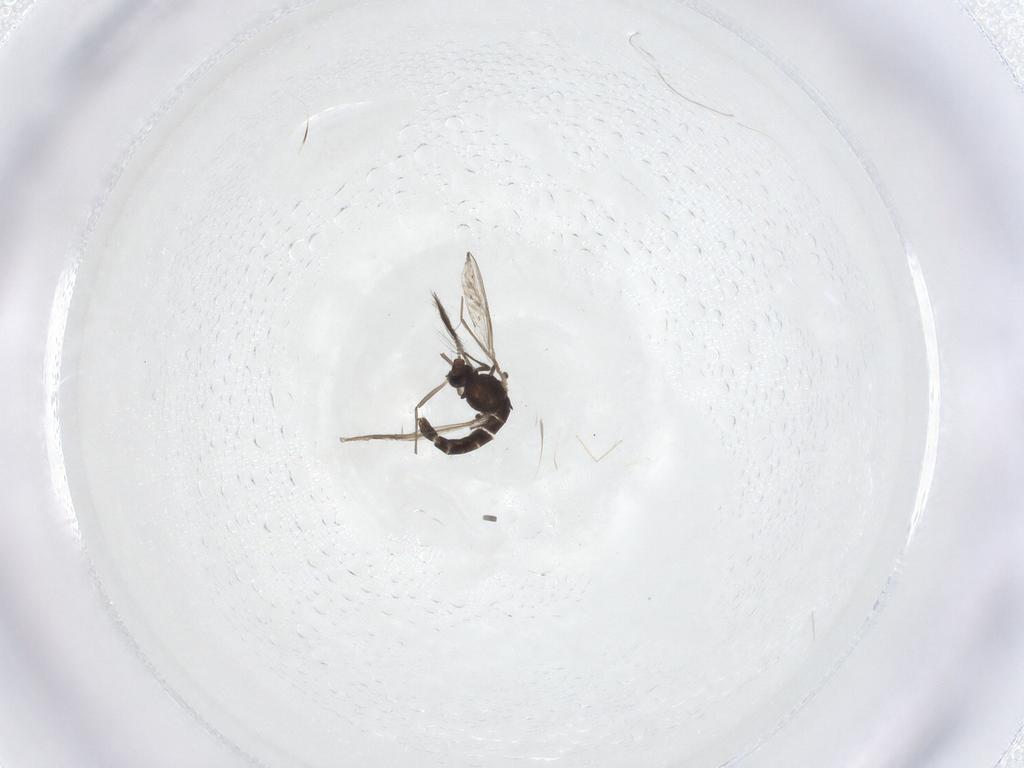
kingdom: Animalia
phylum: Arthropoda
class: Insecta
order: Diptera
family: Chironomidae
